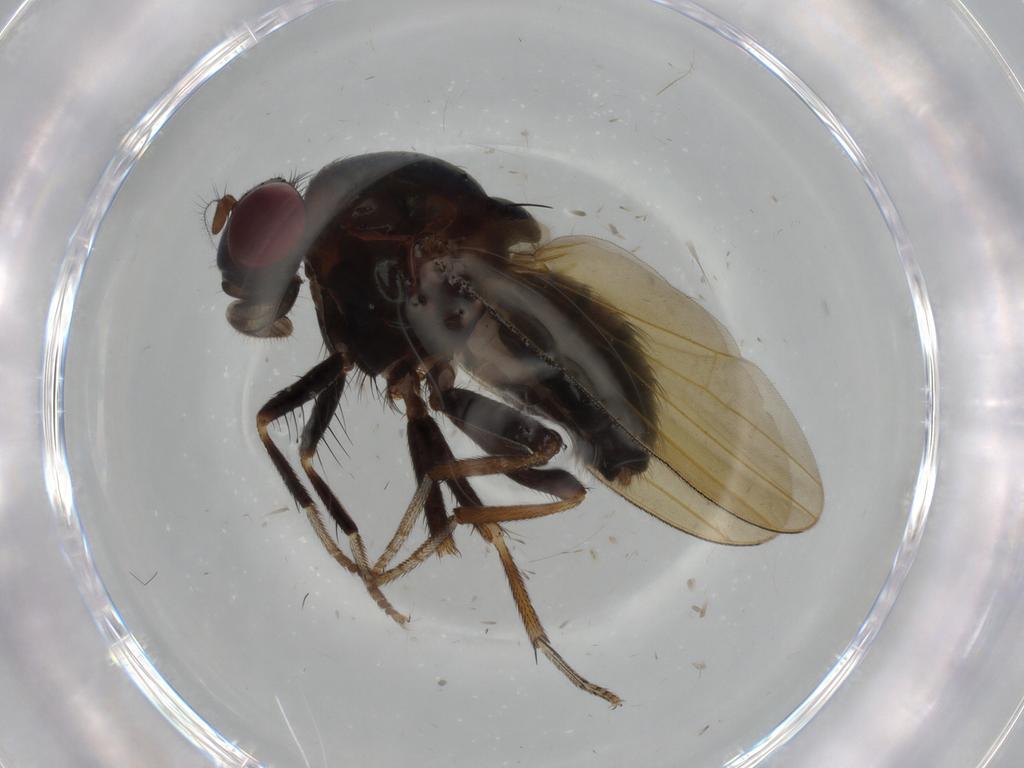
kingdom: Animalia
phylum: Arthropoda
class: Insecta
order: Diptera
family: Chironomidae
